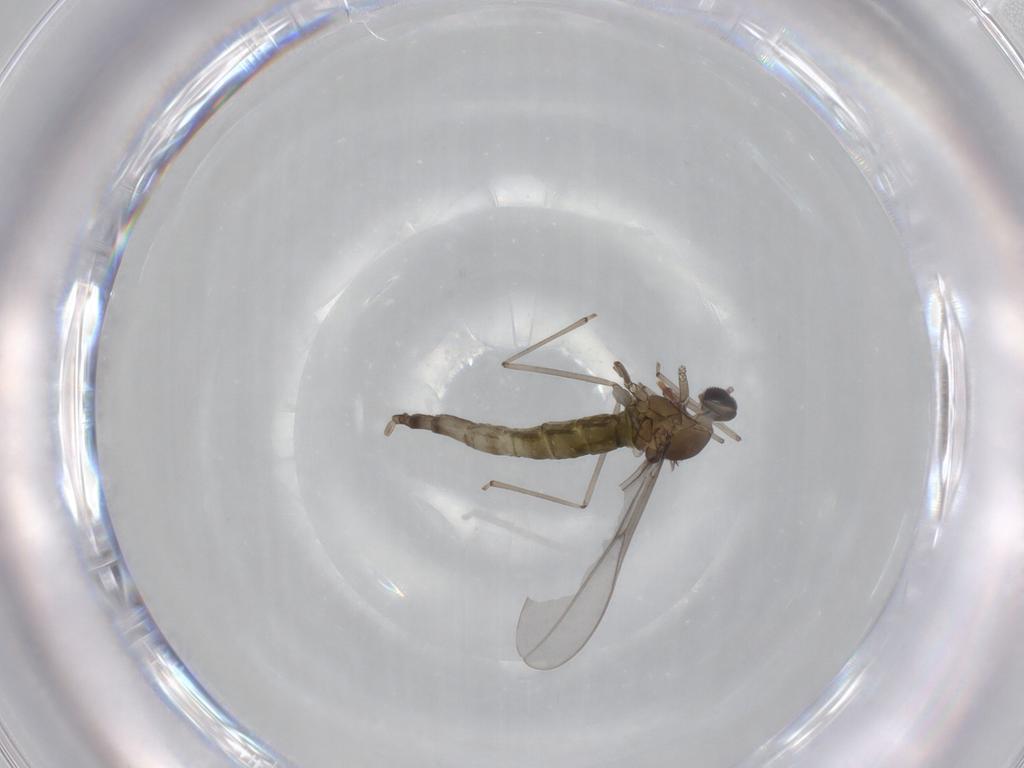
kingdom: Animalia
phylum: Arthropoda
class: Insecta
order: Diptera
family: Cecidomyiidae
